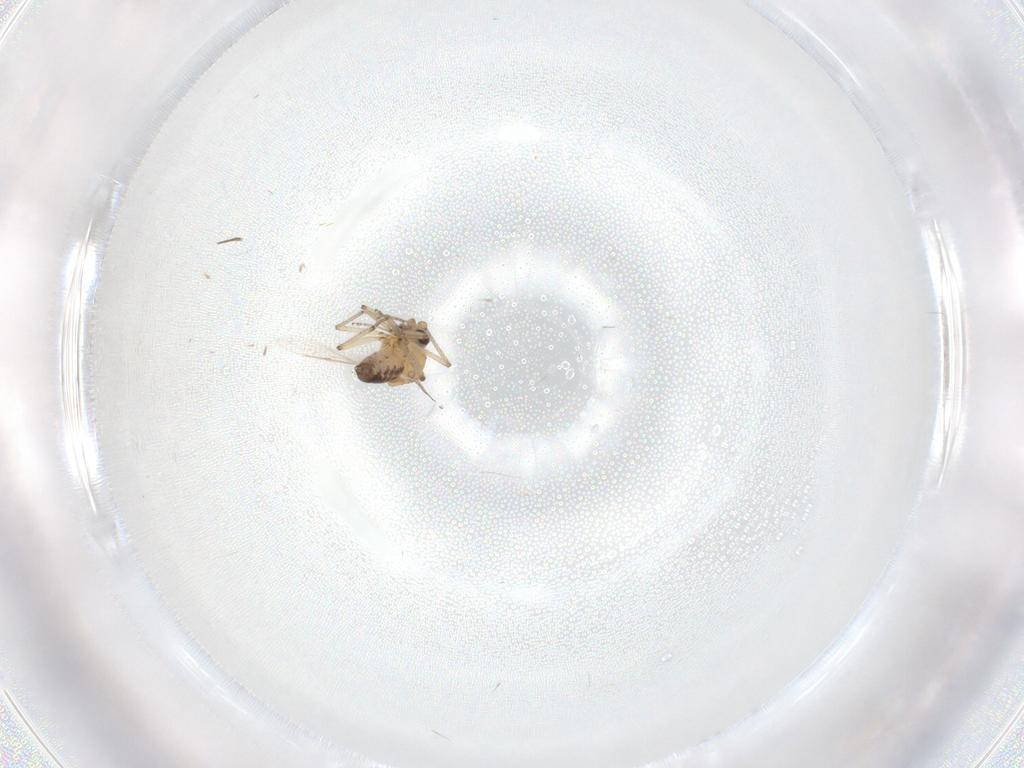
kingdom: Animalia
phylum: Arthropoda
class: Insecta
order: Diptera
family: Ceratopogonidae
